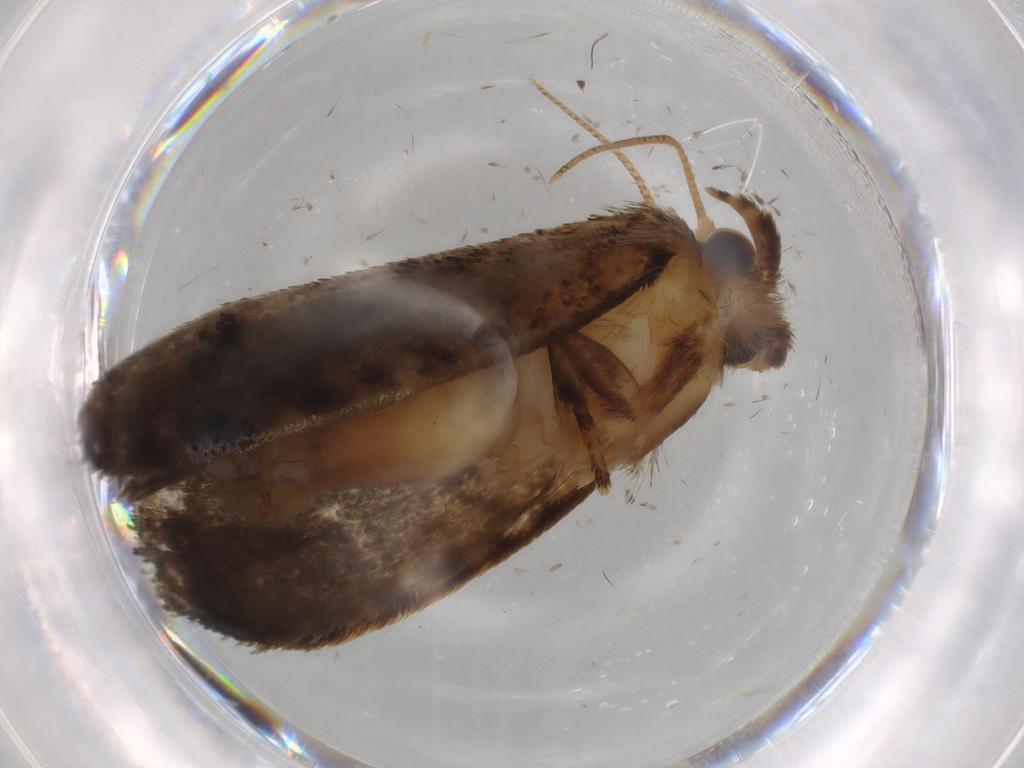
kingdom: Animalia
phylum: Arthropoda
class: Insecta
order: Lepidoptera
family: Tineidae
